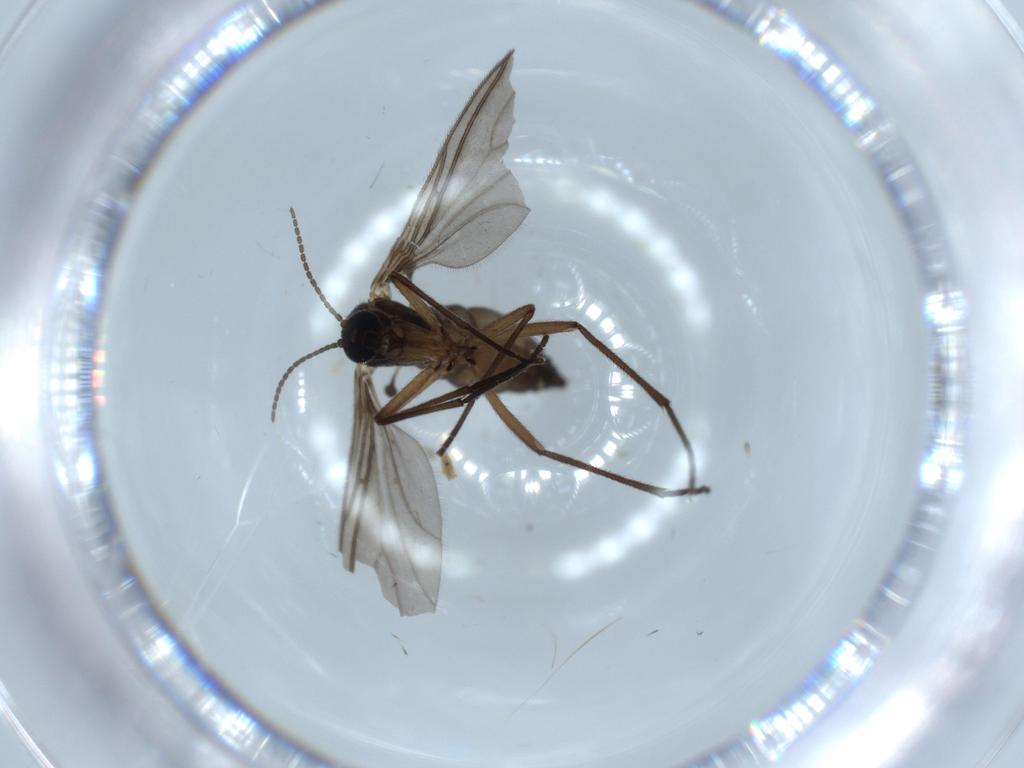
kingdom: Animalia
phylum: Arthropoda
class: Insecta
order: Diptera
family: Sciaridae
